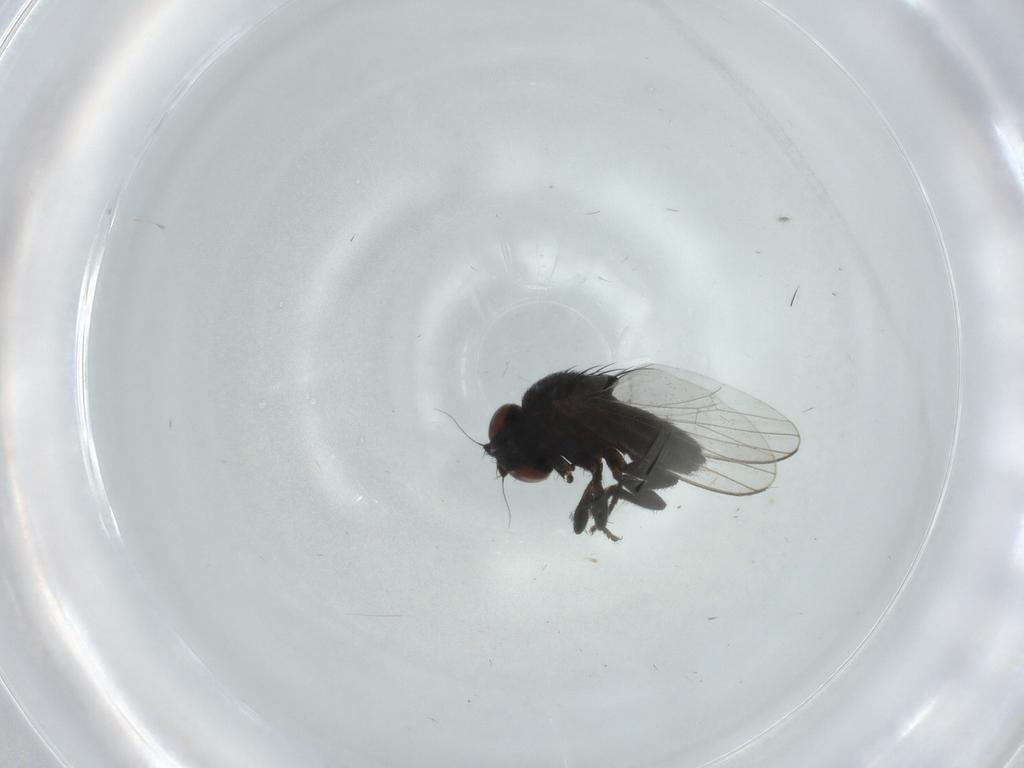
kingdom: Animalia
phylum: Arthropoda
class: Insecta
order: Diptera
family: Milichiidae
